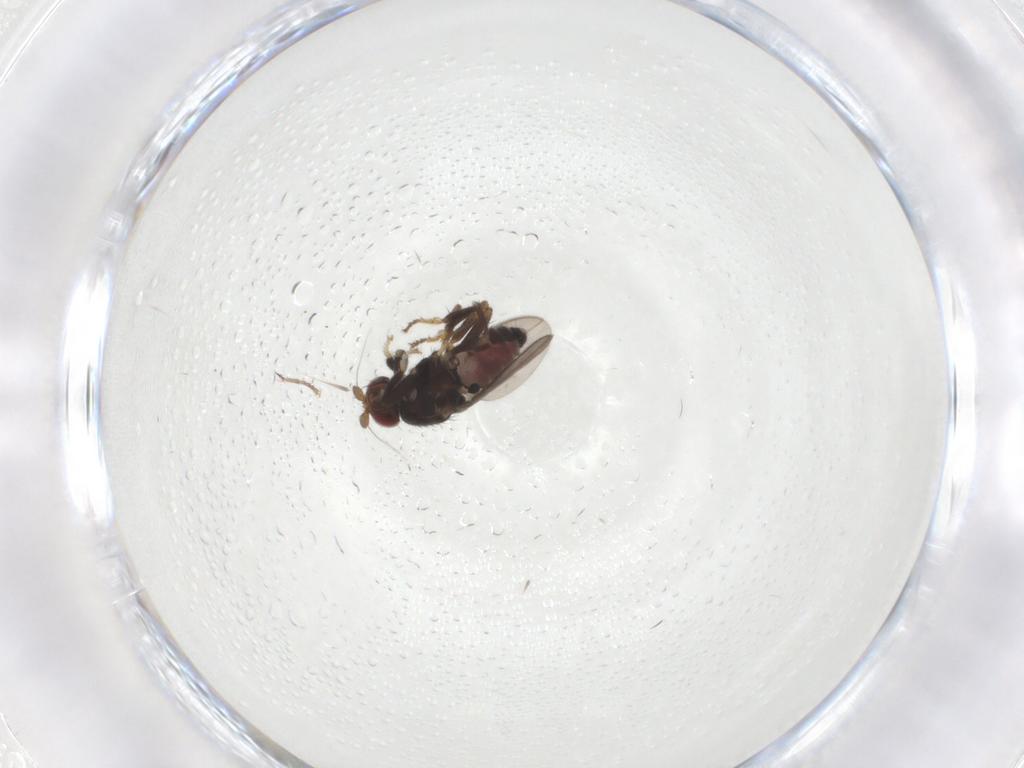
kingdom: Animalia
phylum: Arthropoda
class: Insecta
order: Diptera
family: Sphaeroceridae
